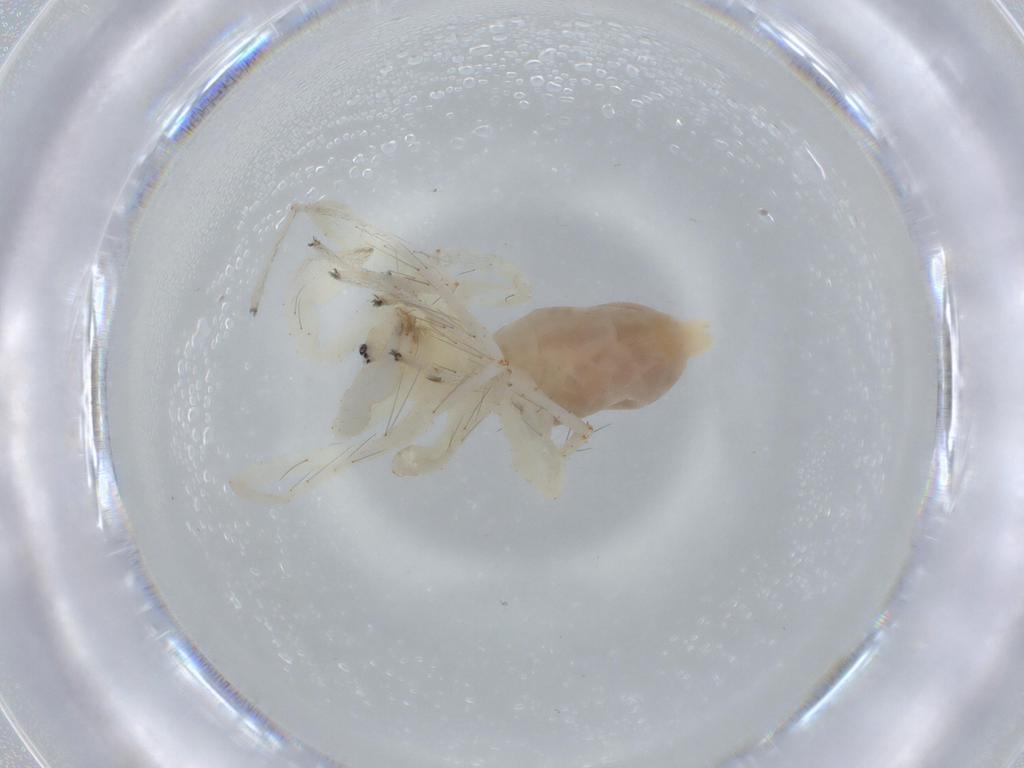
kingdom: Animalia
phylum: Arthropoda
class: Arachnida
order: Araneae
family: Anyphaenidae
